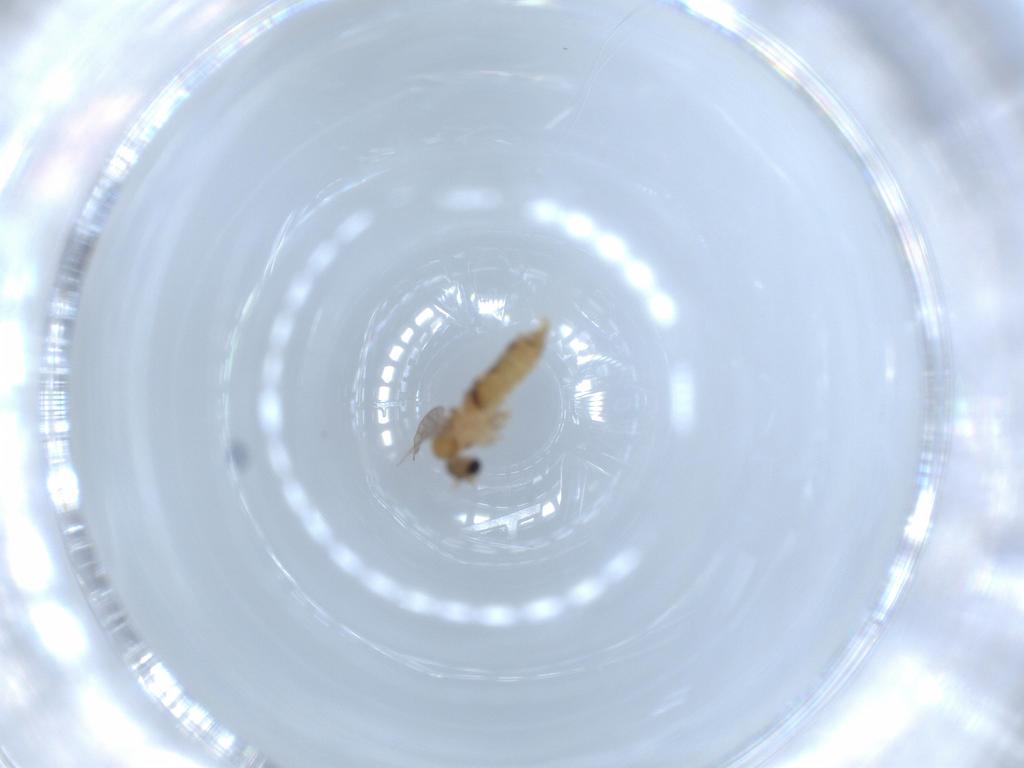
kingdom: Animalia
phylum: Arthropoda
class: Insecta
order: Diptera
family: Psychodidae
